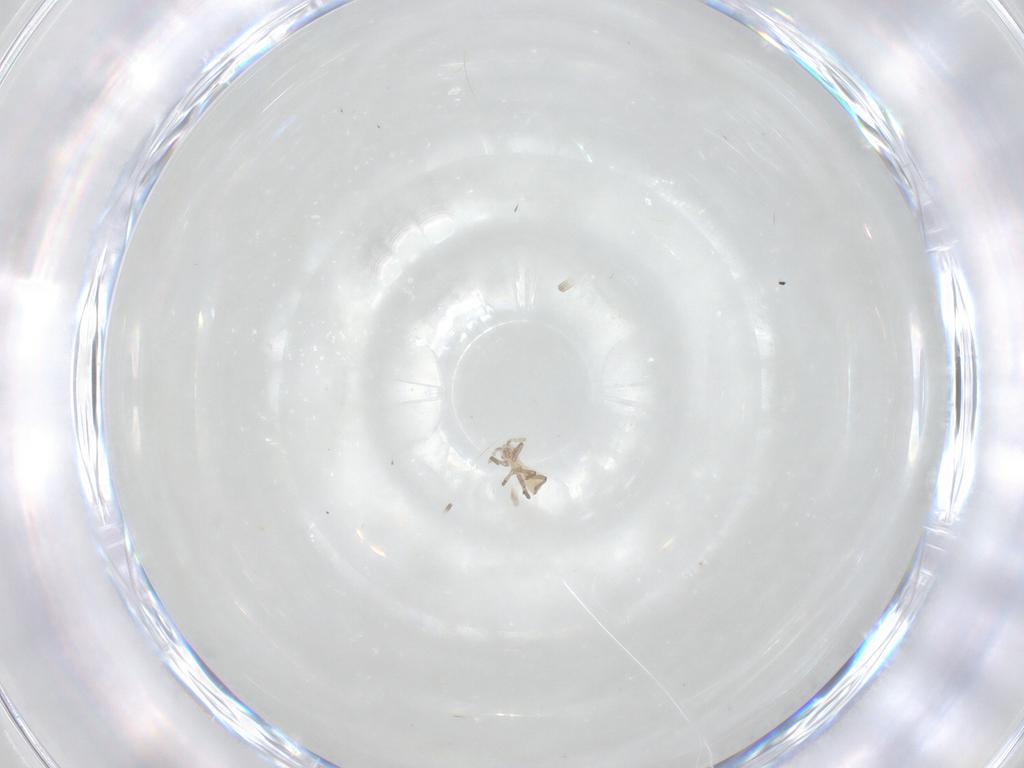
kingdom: Animalia
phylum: Arthropoda
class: Insecta
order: Hemiptera
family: Aphididae
